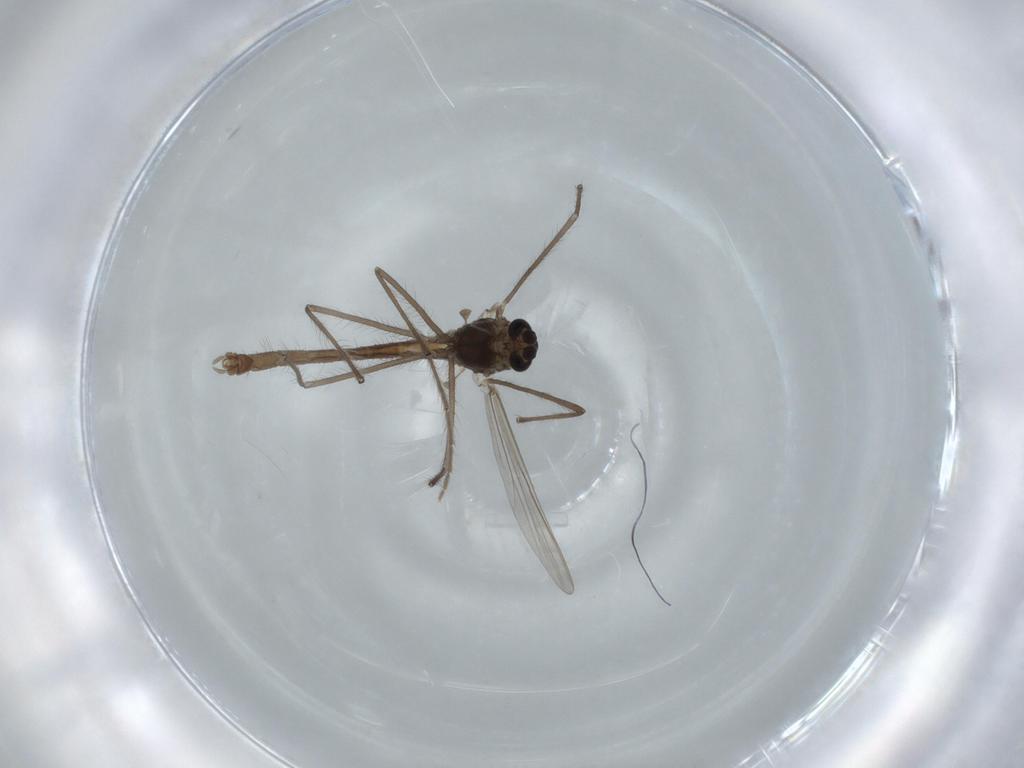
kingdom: Animalia
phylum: Arthropoda
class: Insecta
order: Diptera
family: Chironomidae
